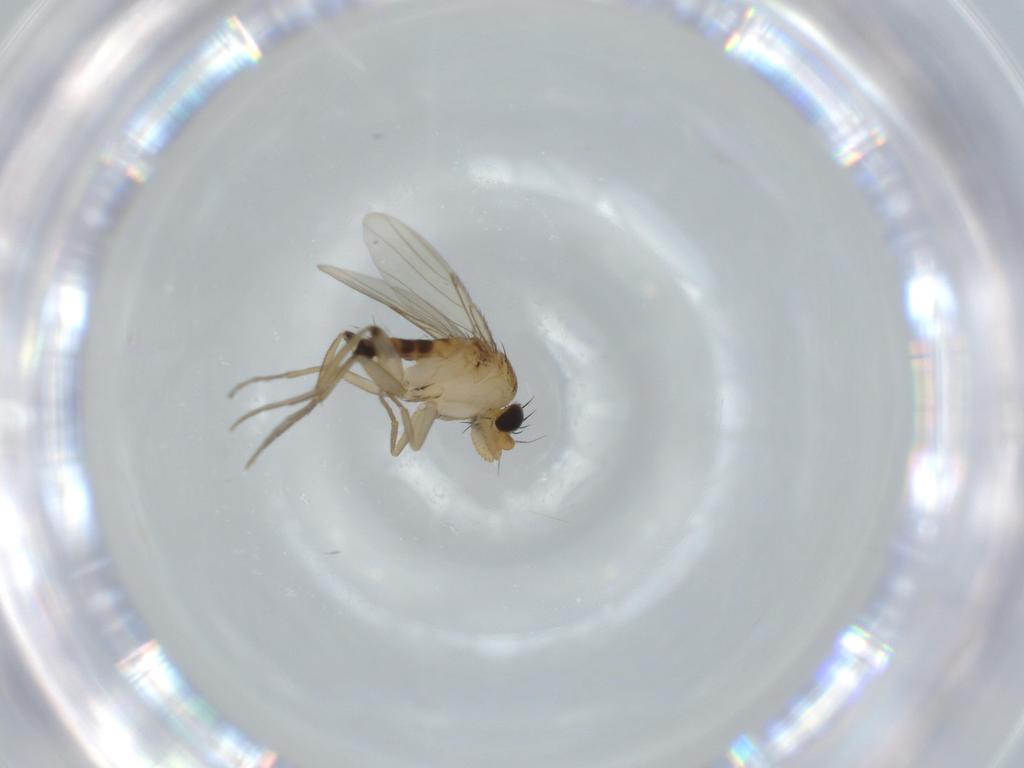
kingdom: Animalia
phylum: Arthropoda
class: Insecta
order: Diptera
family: Phoridae
